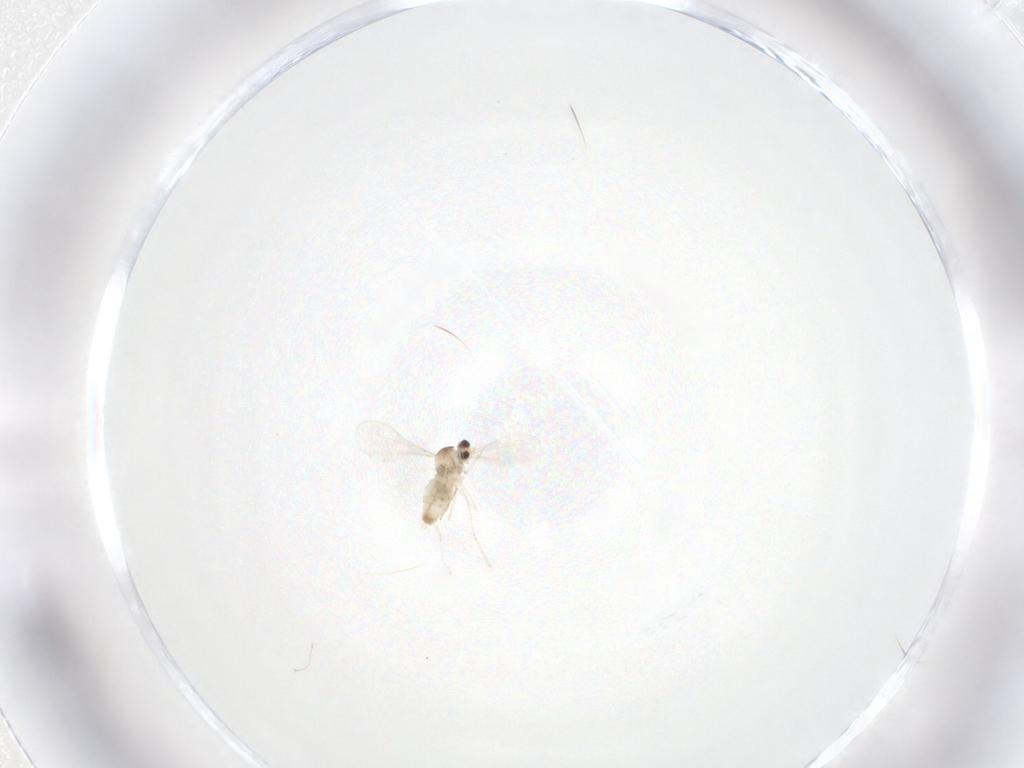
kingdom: Animalia
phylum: Arthropoda
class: Insecta
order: Diptera
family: Cecidomyiidae
